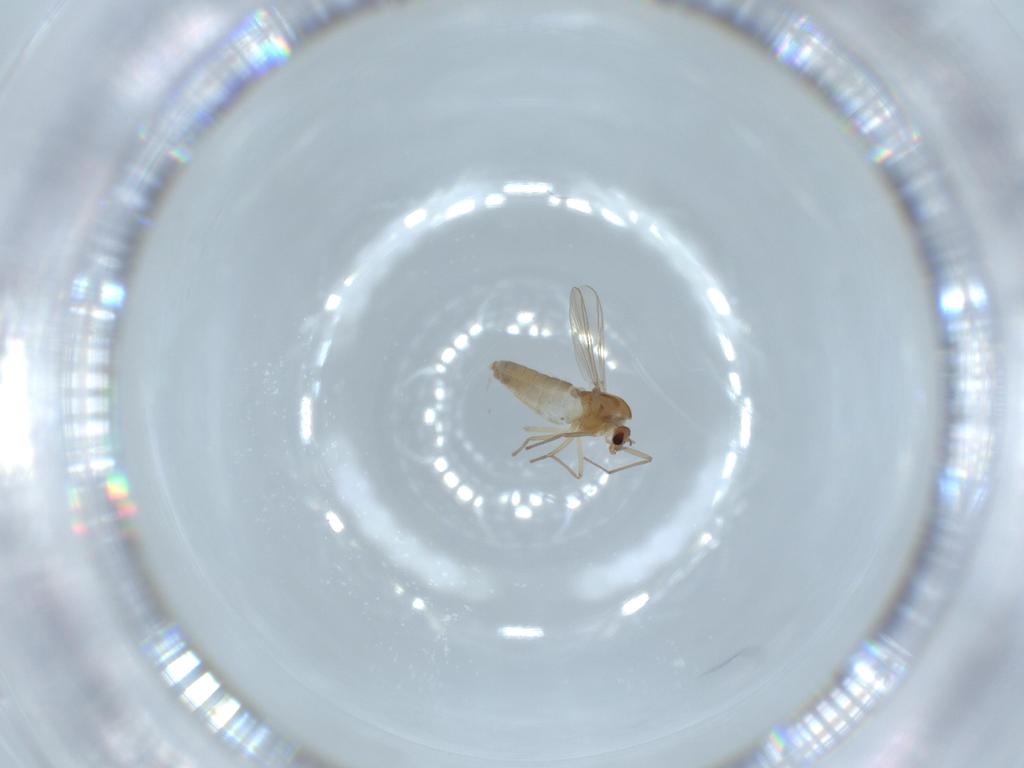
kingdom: Animalia
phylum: Arthropoda
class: Insecta
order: Diptera
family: Chironomidae
